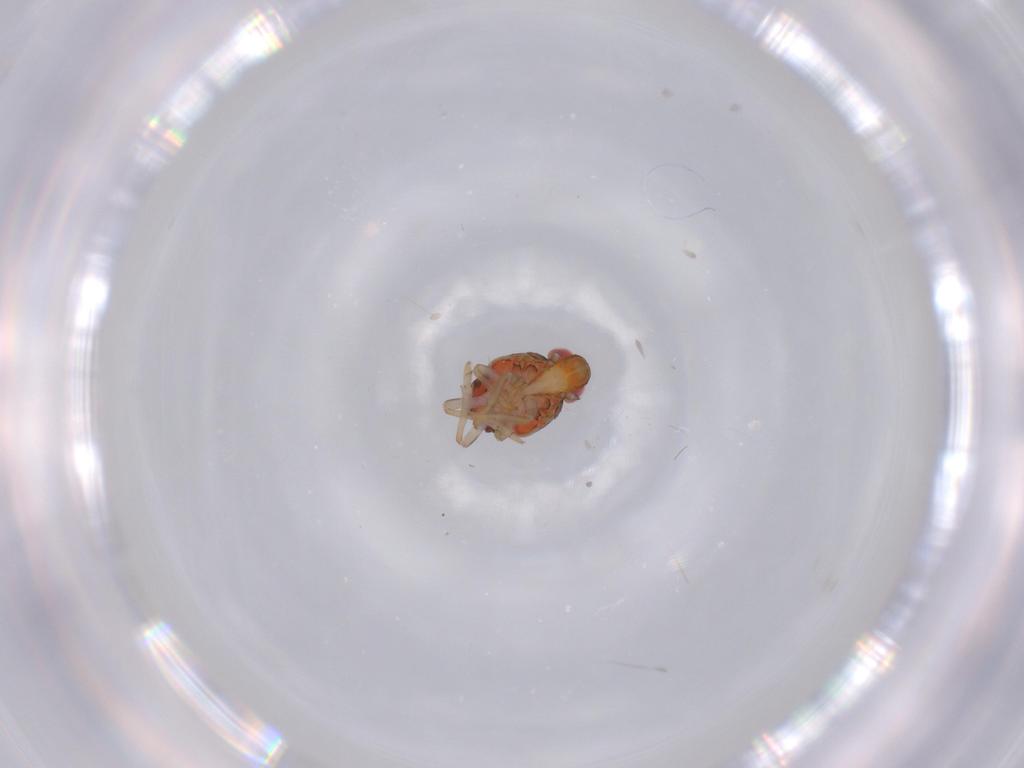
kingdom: Animalia
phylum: Arthropoda
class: Insecta
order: Hemiptera
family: Issidae
